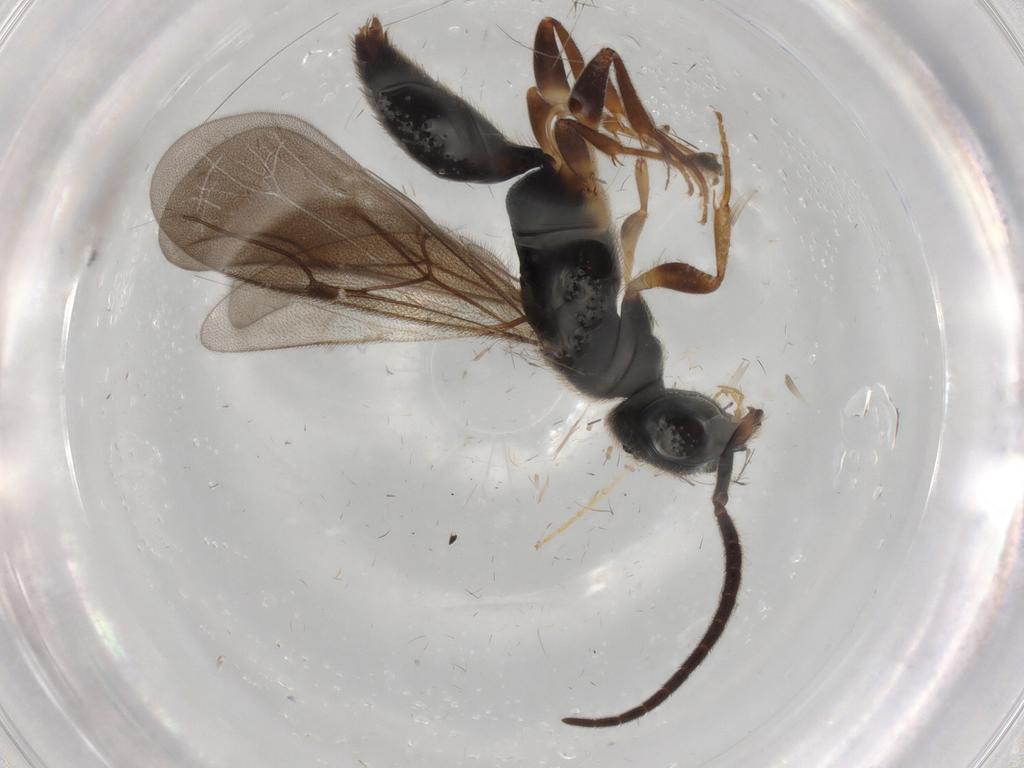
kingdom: Animalia
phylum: Arthropoda
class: Insecta
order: Hymenoptera
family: Bethylidae
